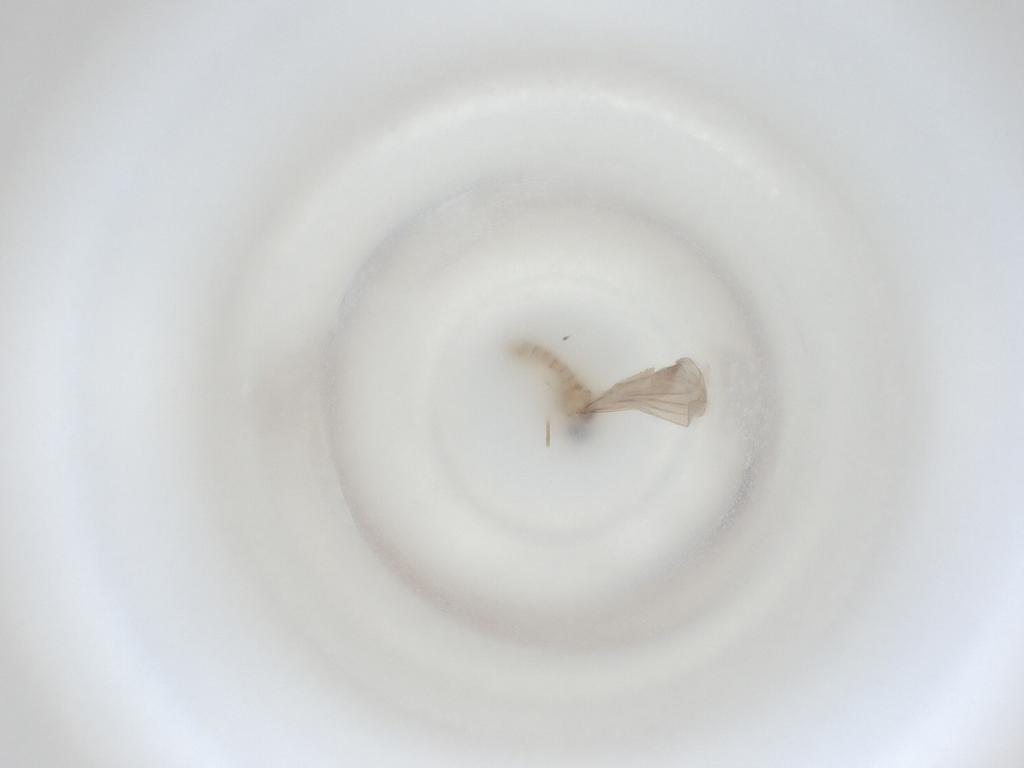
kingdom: Animalia
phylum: Arthropoda
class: Insecta
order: Diptera
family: Cecidomyiidae
